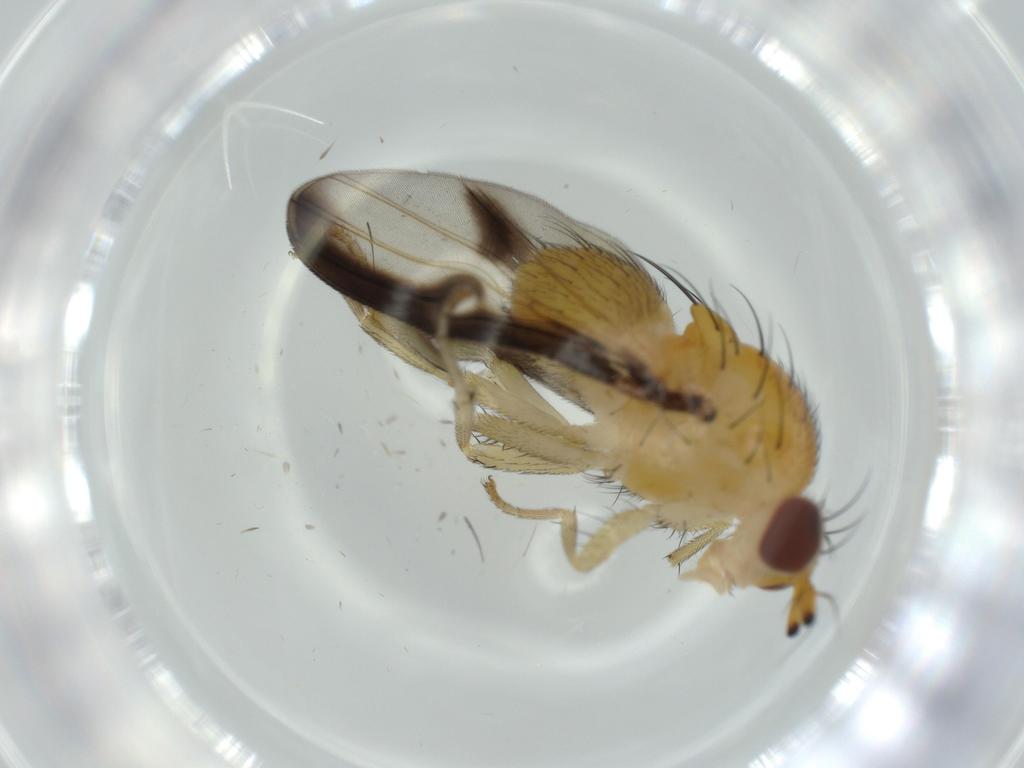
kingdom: Animalia
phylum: Arthropoda
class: Insecta
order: Diptera
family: Lauxaniidae
